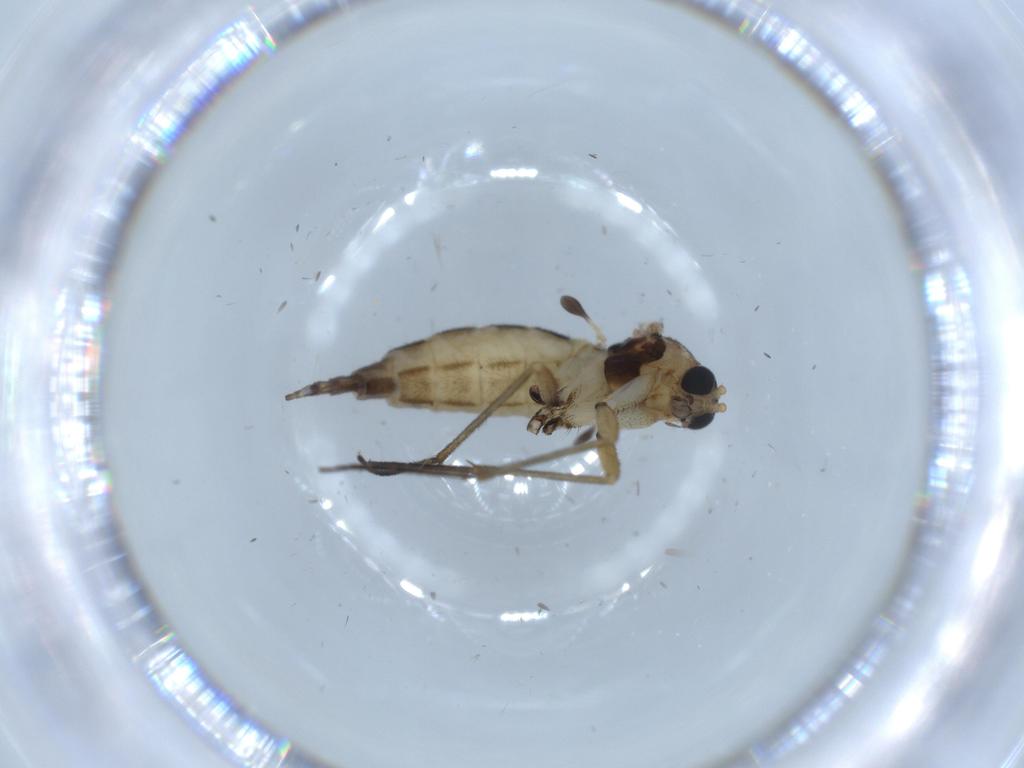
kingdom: Animalia
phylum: Arthropoda
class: Insecta
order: Diptera
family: Sciaridae
